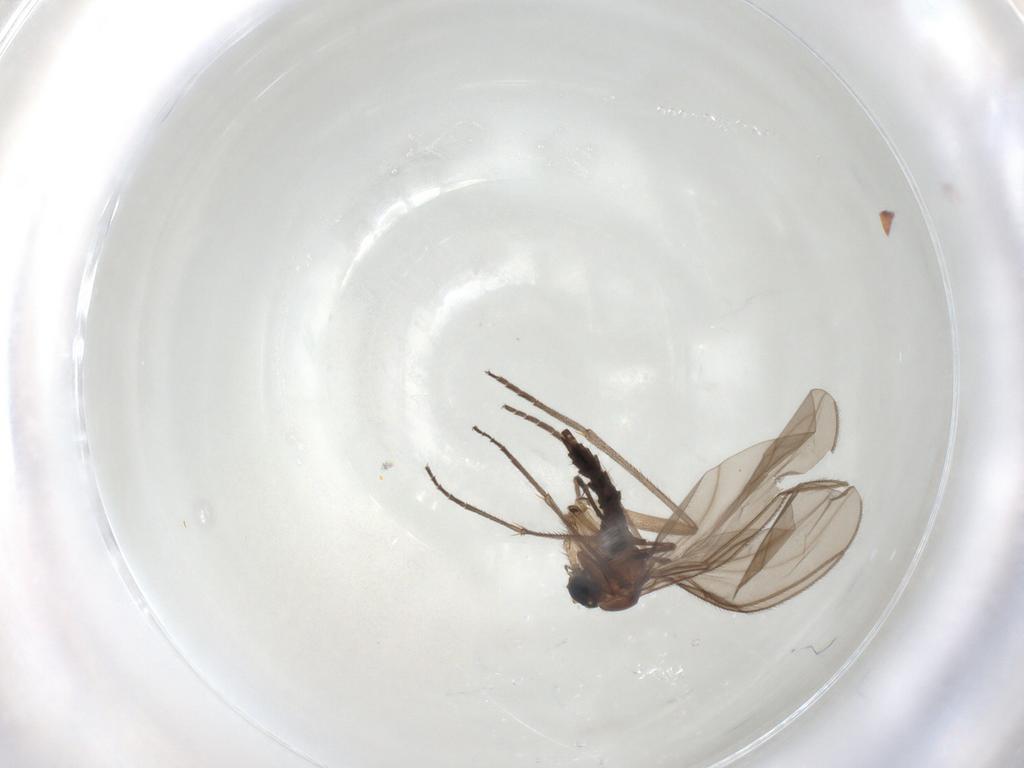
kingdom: Animalia
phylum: Arthropoda
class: Insecta
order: Diptera
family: Sciaridae
